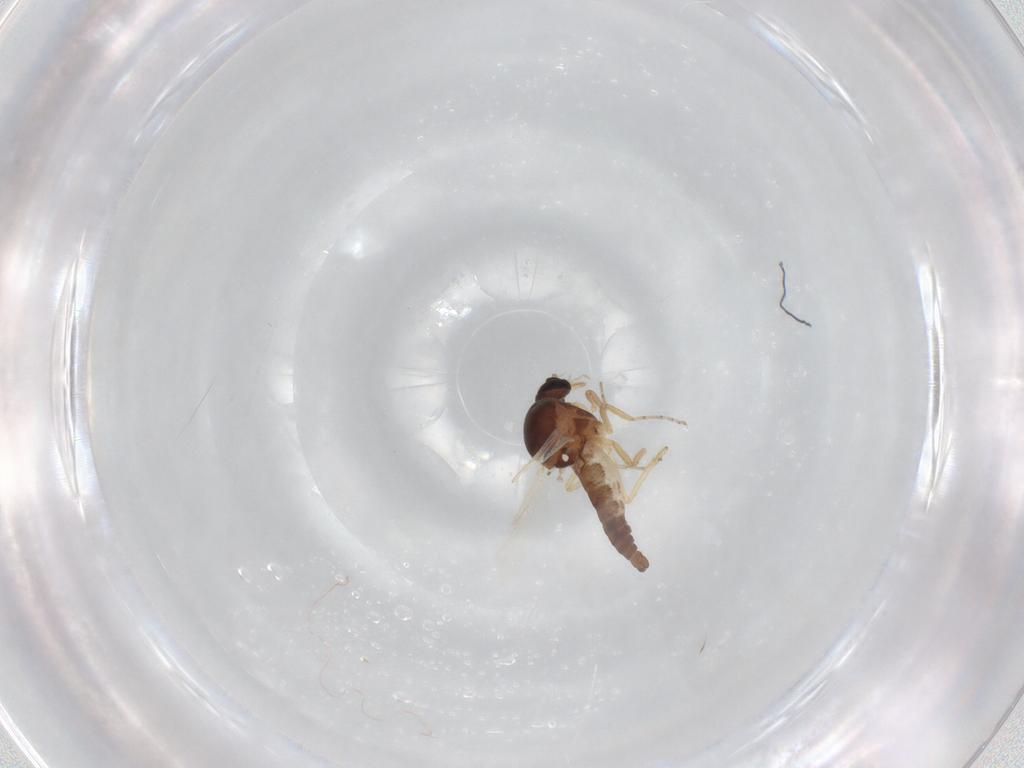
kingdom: Animalia
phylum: Arthropoda
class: Insecta
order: Diptera
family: Ceratopogonidae
